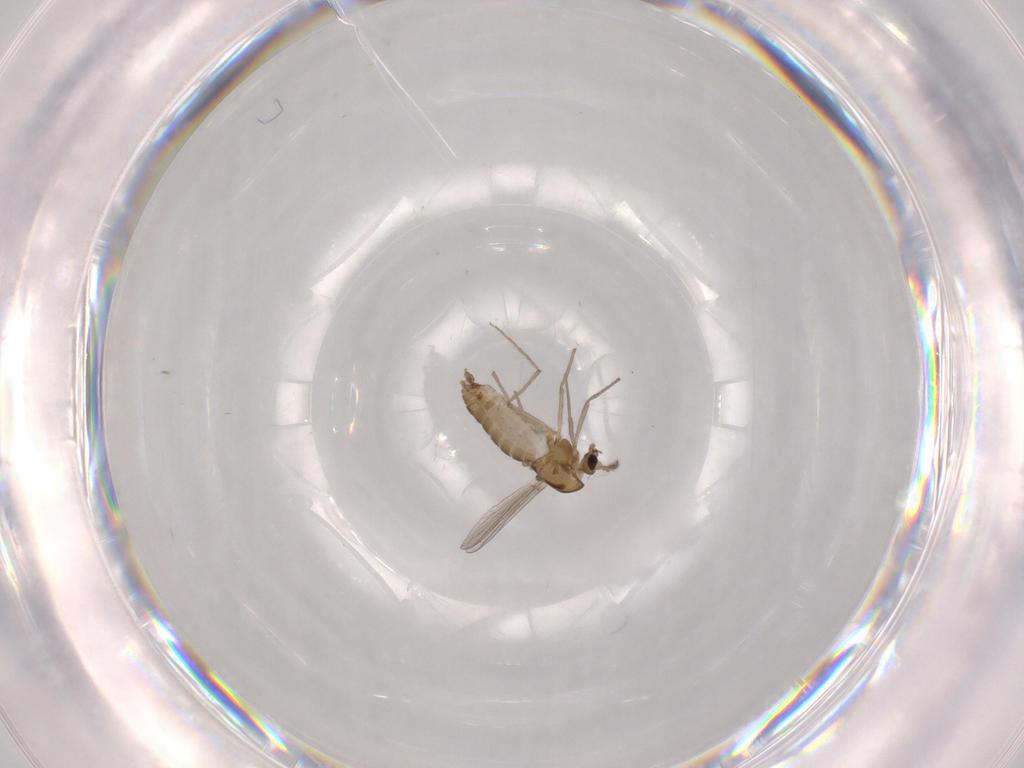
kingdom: Animalia
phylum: Arthropoda
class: Insecta
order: Diptera
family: Chironomidae
